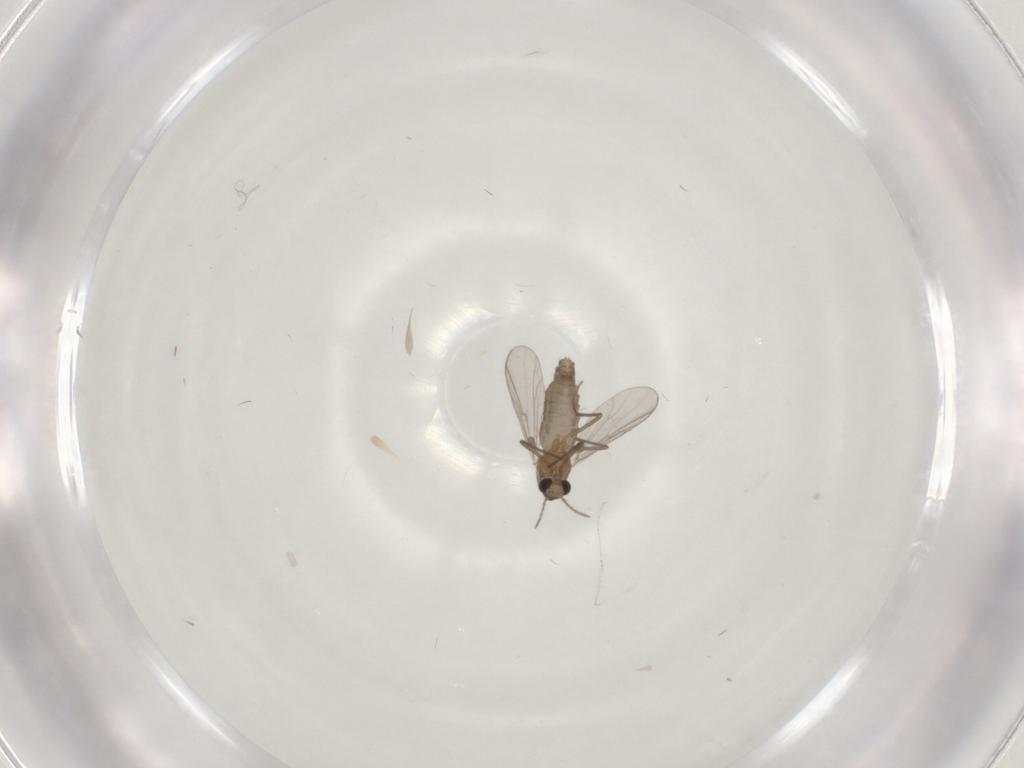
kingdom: Animalia
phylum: Arthropoda
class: Insecta
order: Diptera
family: Chironomidae
